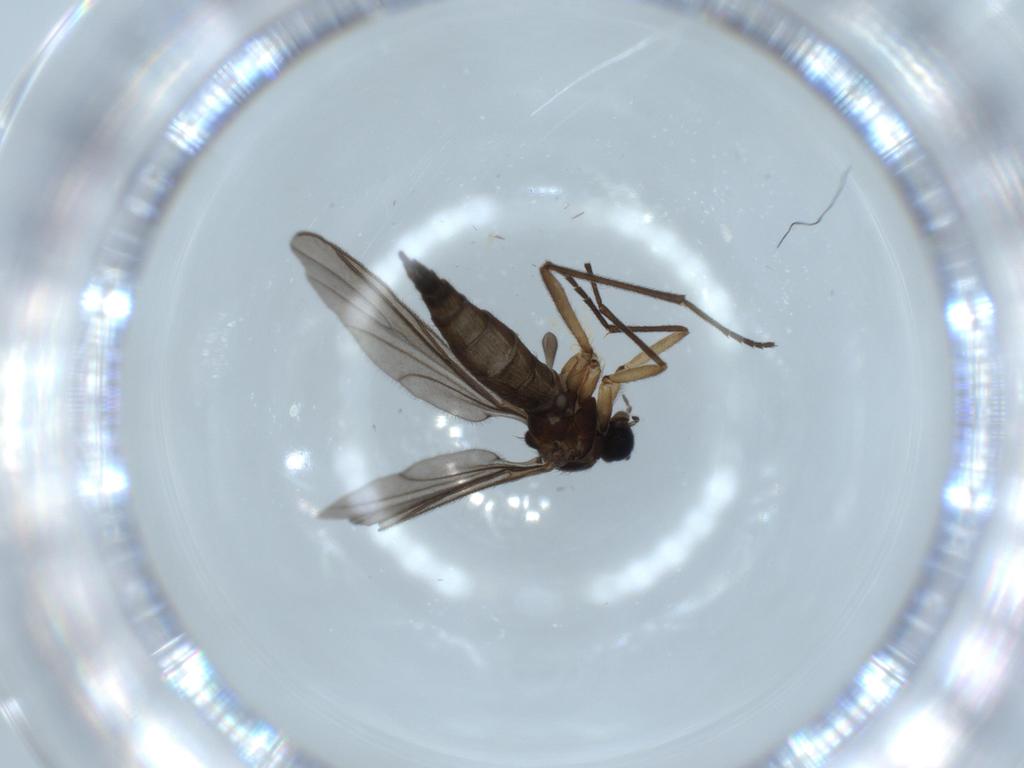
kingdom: Animalia
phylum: Arthropoda
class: Insecta
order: Diptera
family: Sciaridae
